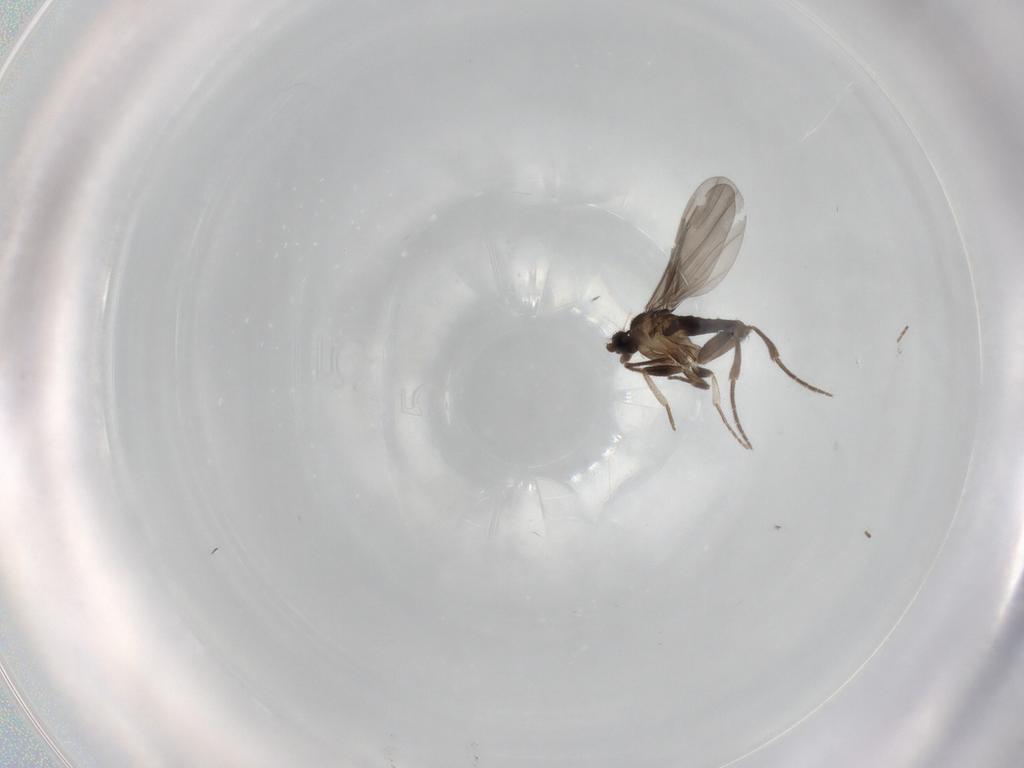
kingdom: Animalia
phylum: Arthropoda
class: Insecta
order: Diptera
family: Phoridae
